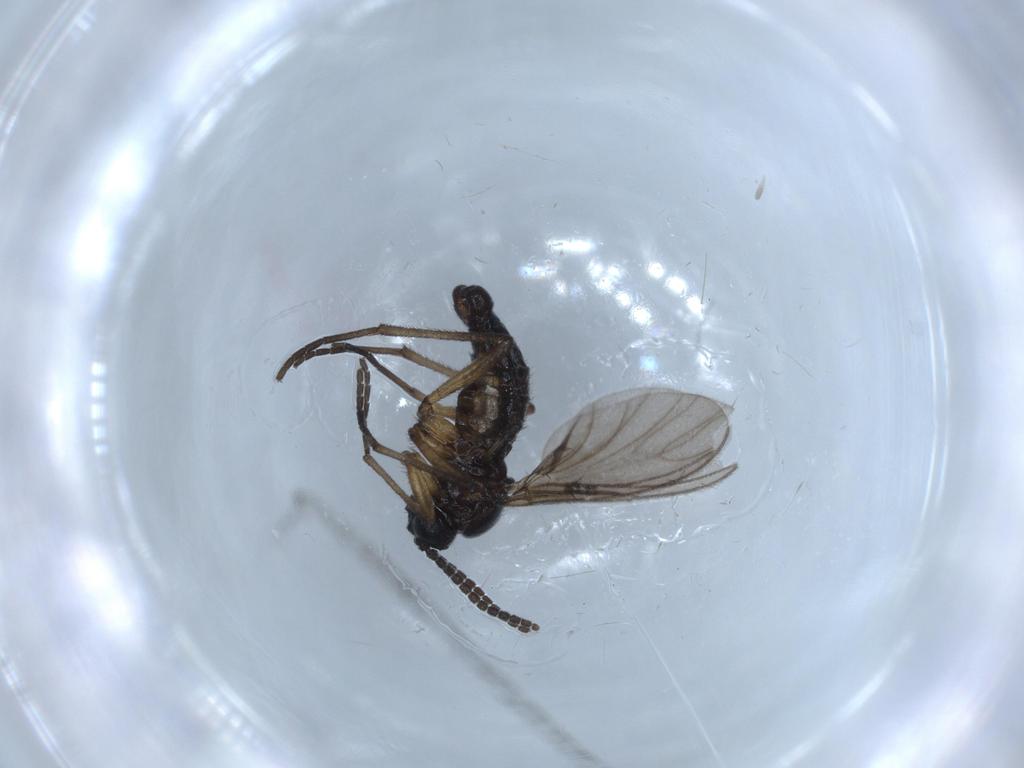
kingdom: Animalia
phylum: Arthropoda
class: Insecta
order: Diptera
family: Sciaridae
